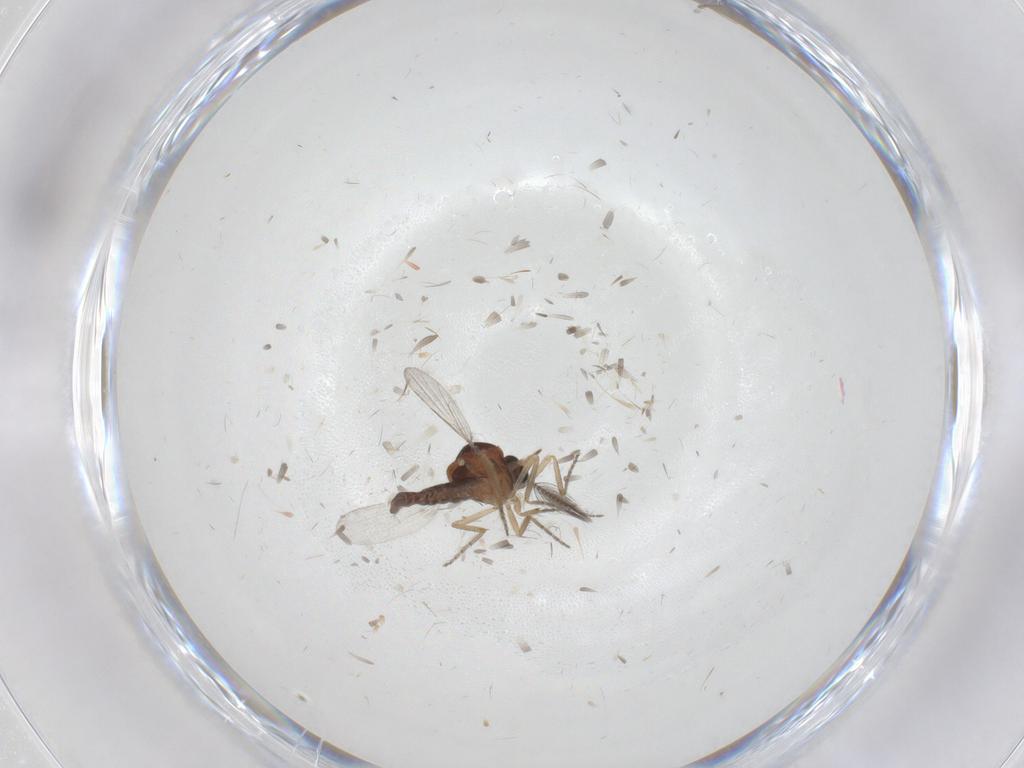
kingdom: Animalia
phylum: Arthropoda
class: Insecta
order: Diptera
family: Ceratopogonidae
